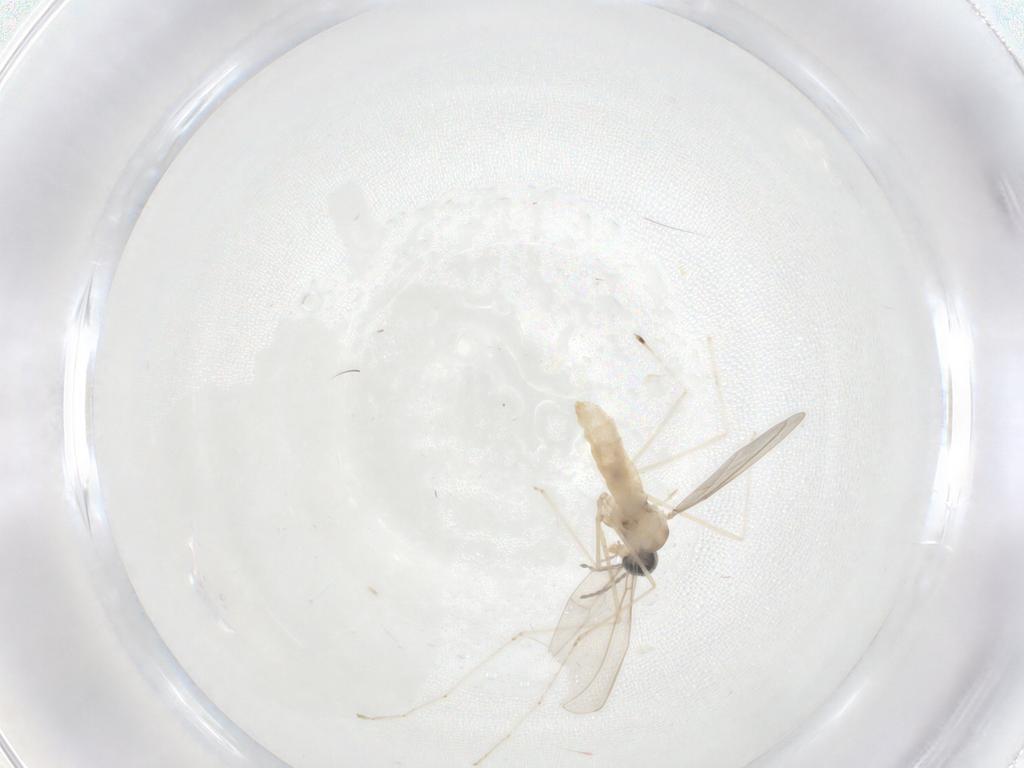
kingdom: Animalia
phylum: Arthropoda
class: Insecta
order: Diptera
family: Cecidomyiidae
